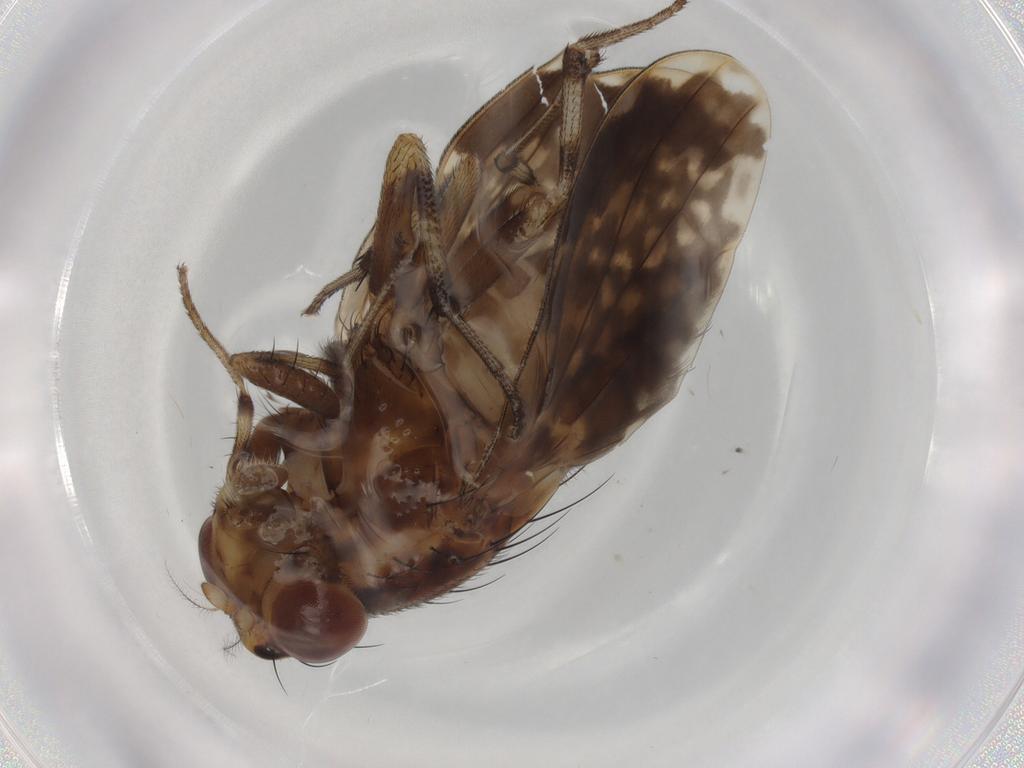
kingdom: Animalia
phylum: Arthropoda
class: Insecta
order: Diptera
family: Lauxaniidae
